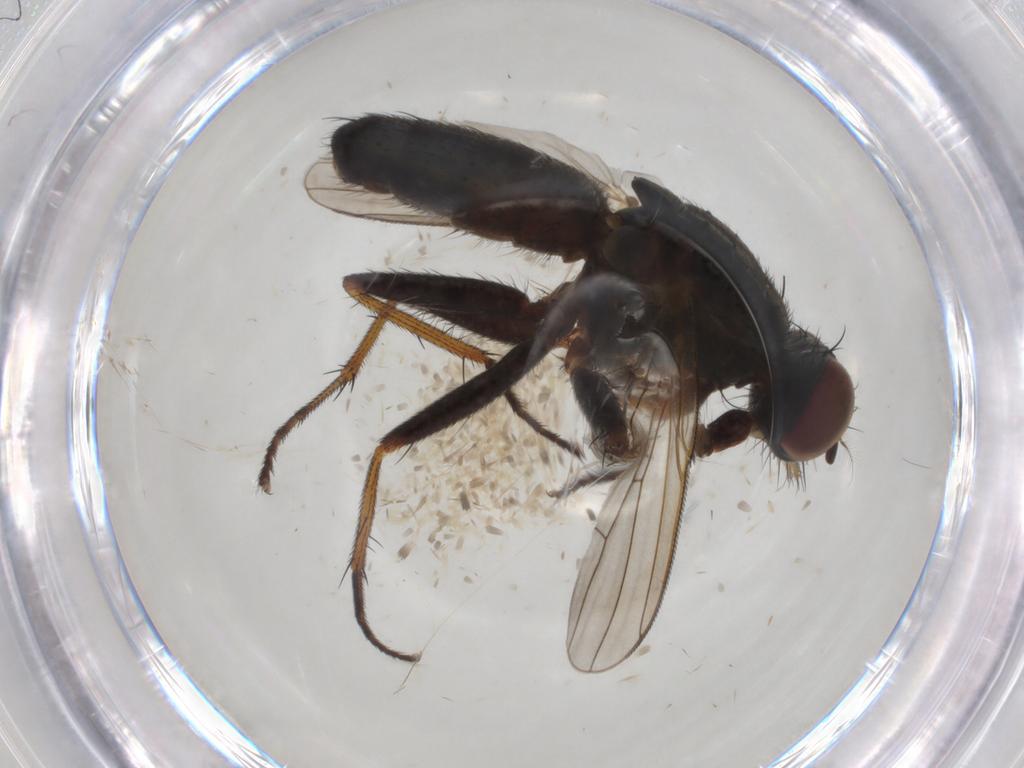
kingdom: Animalia
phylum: Arthropoda
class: Insecta
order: Diptera
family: Muscidae
